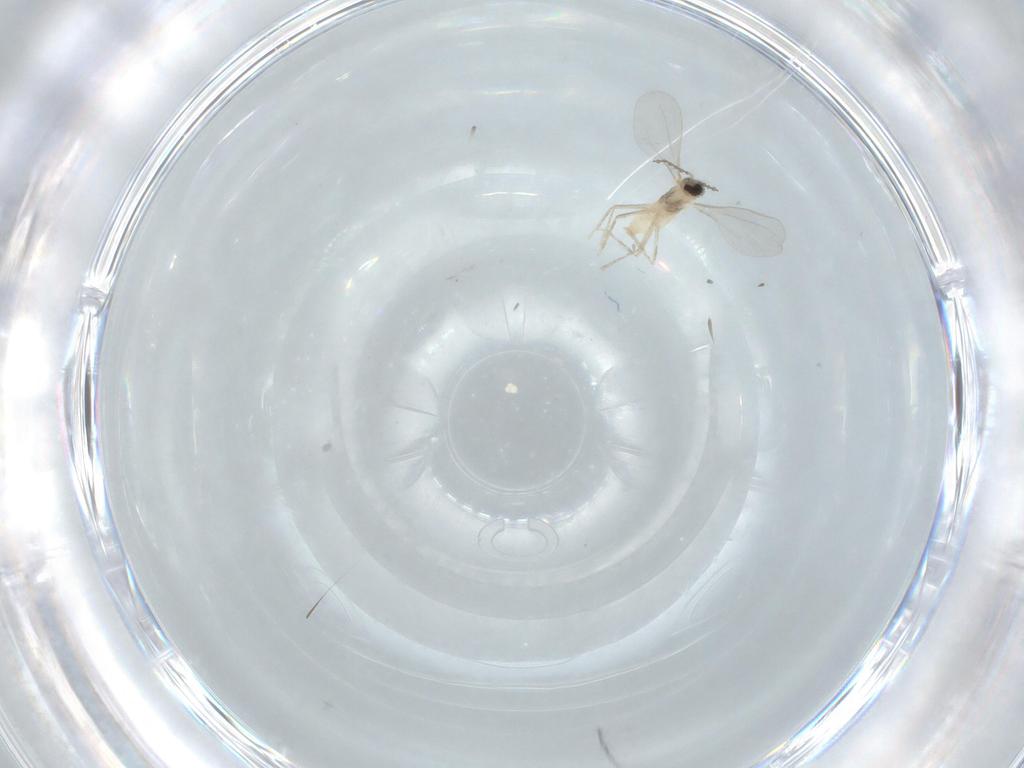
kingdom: Animalia
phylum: Arthropoda
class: Insecta
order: Diptera
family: Cecidomyiidae
